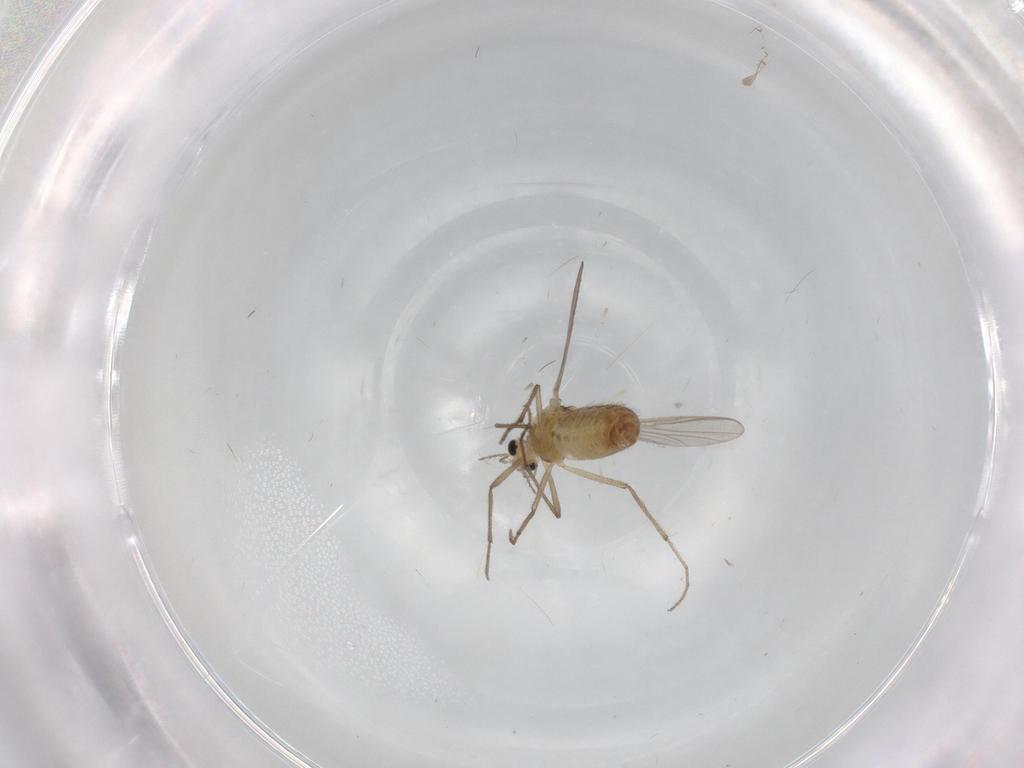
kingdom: Animalia
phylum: Arthropoda
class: Insecta
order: Diptera
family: Chironomidae
